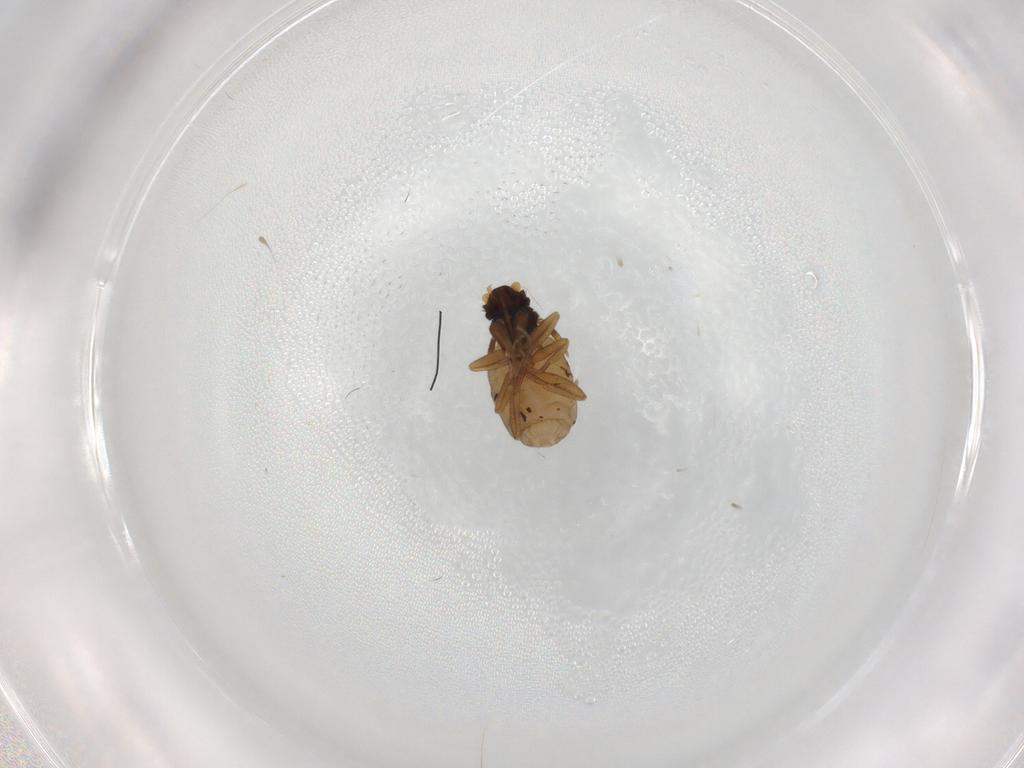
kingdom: Animalia
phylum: Arthropoda
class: Insecta
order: Diptera
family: Phoridae
